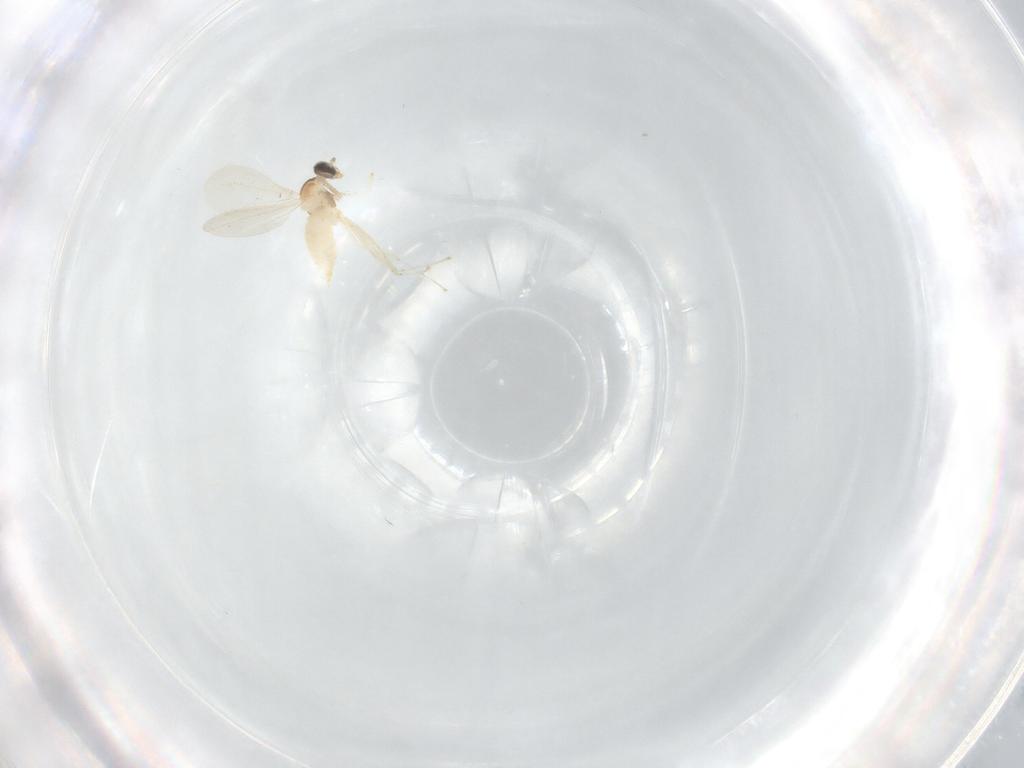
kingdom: Animalia
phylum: Arthropoda
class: Insecta
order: Diptera
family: Cecidomyiidae
